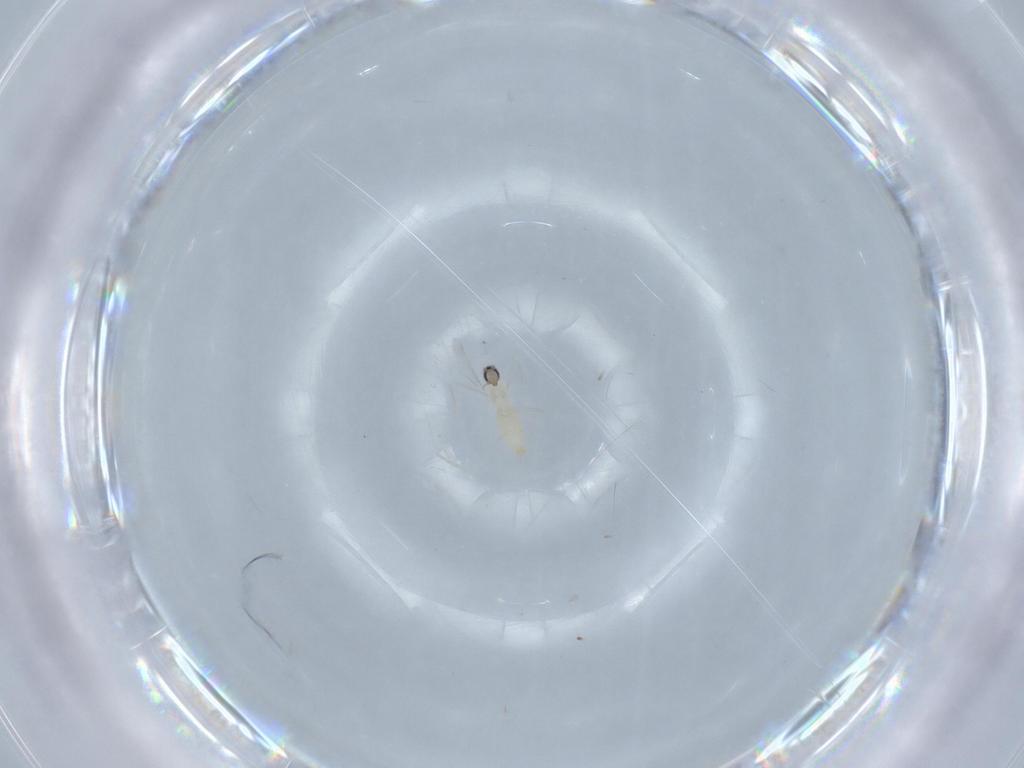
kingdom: Animalia
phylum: Arthropoda
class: Insecta
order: Diptera
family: Cecidomyiidae
